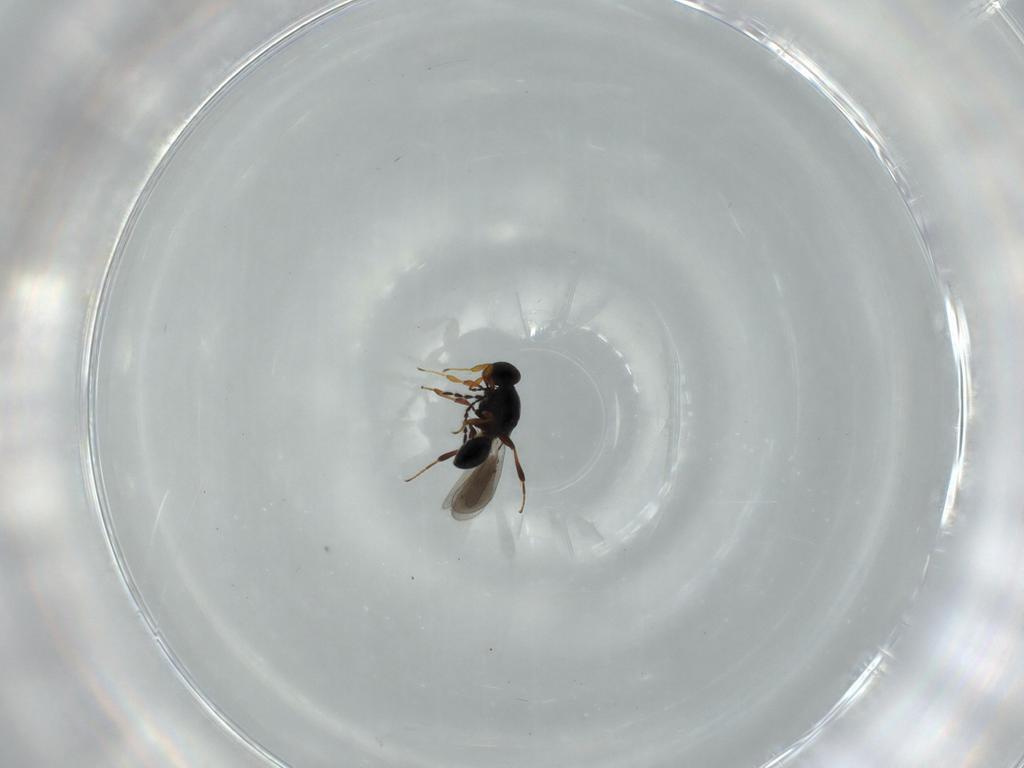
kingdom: Animalia
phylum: Arthropoda
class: Insecta
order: Hymenoptera
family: Platygastridae
